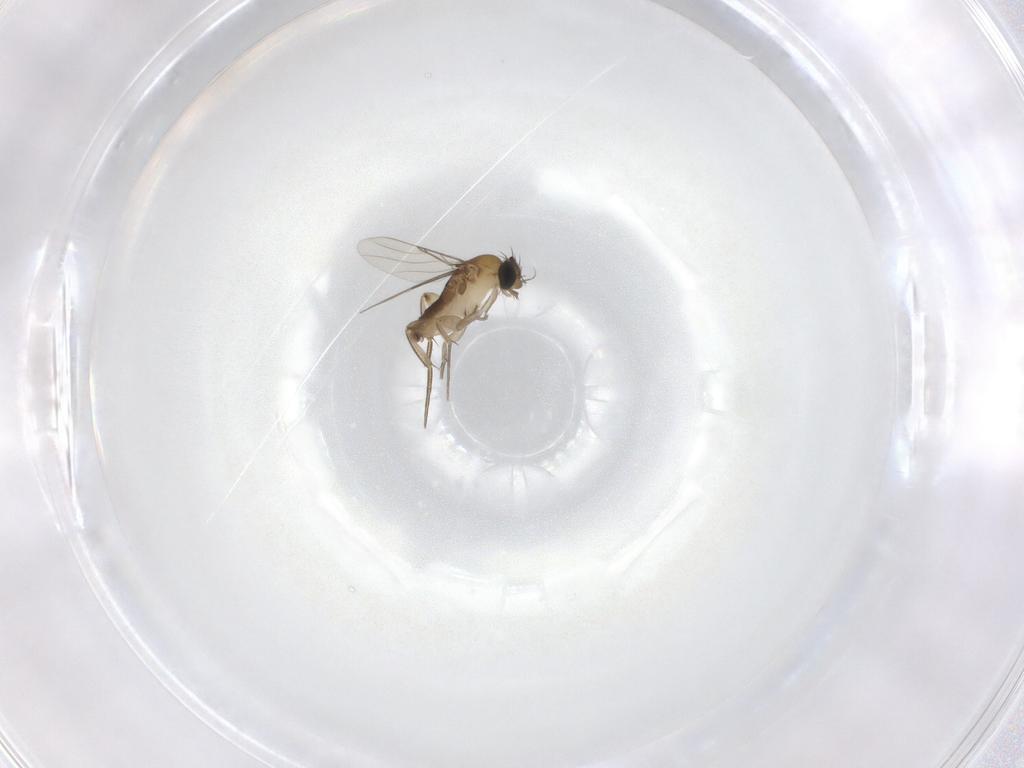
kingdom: Animalia
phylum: Arthropoda
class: Insecta
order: Diptera
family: Phoridae
